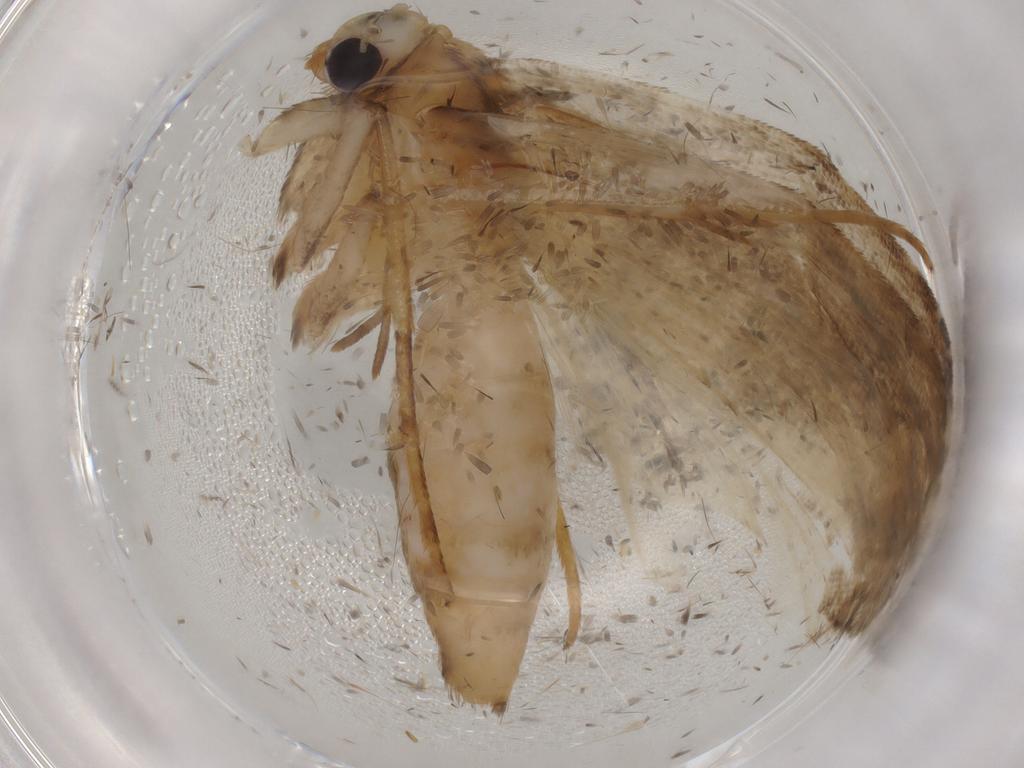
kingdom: Animalia
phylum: Arthropoda
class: Insecta
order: Lepidoptera
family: Noctuidae
